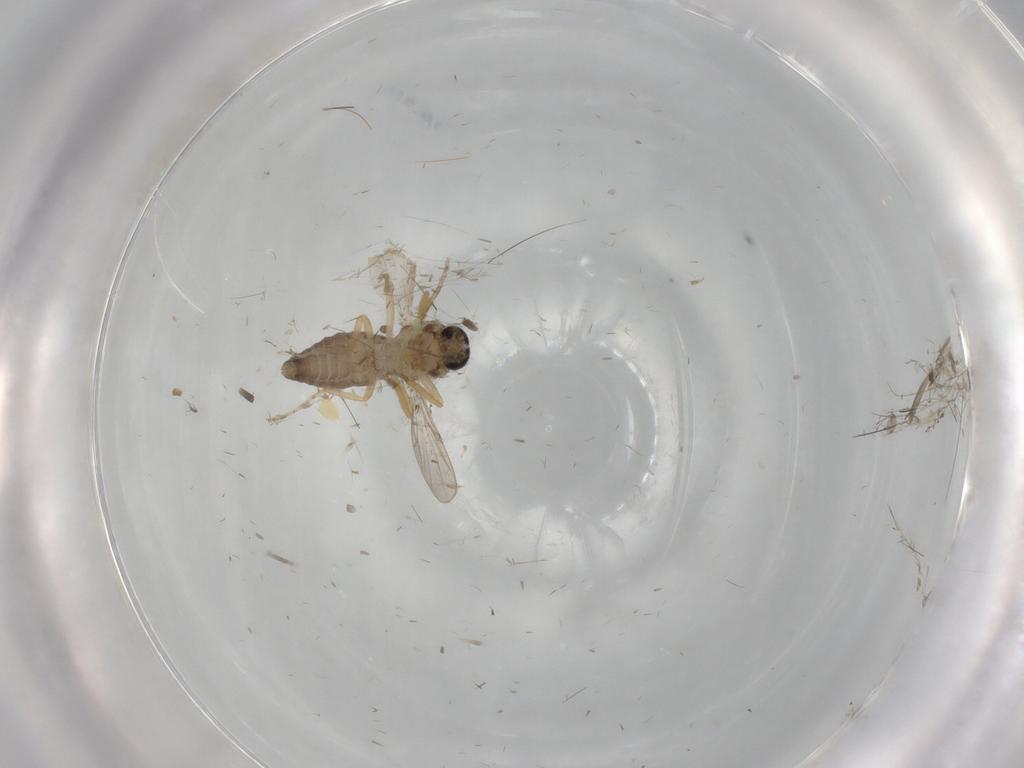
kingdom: Animalia
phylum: Arthropoda
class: Insecta
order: Diptera
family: Ceratopogonidae
